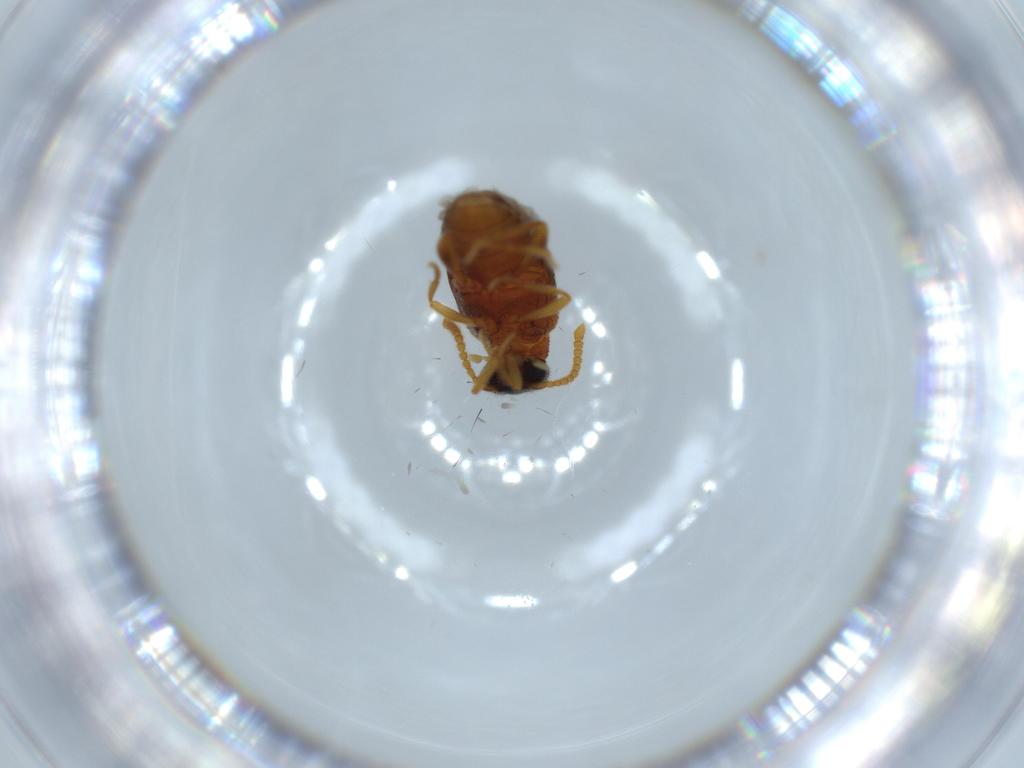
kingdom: Animalia
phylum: Arthropoda
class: Insecta
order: Coleoptera
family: Aderidae
